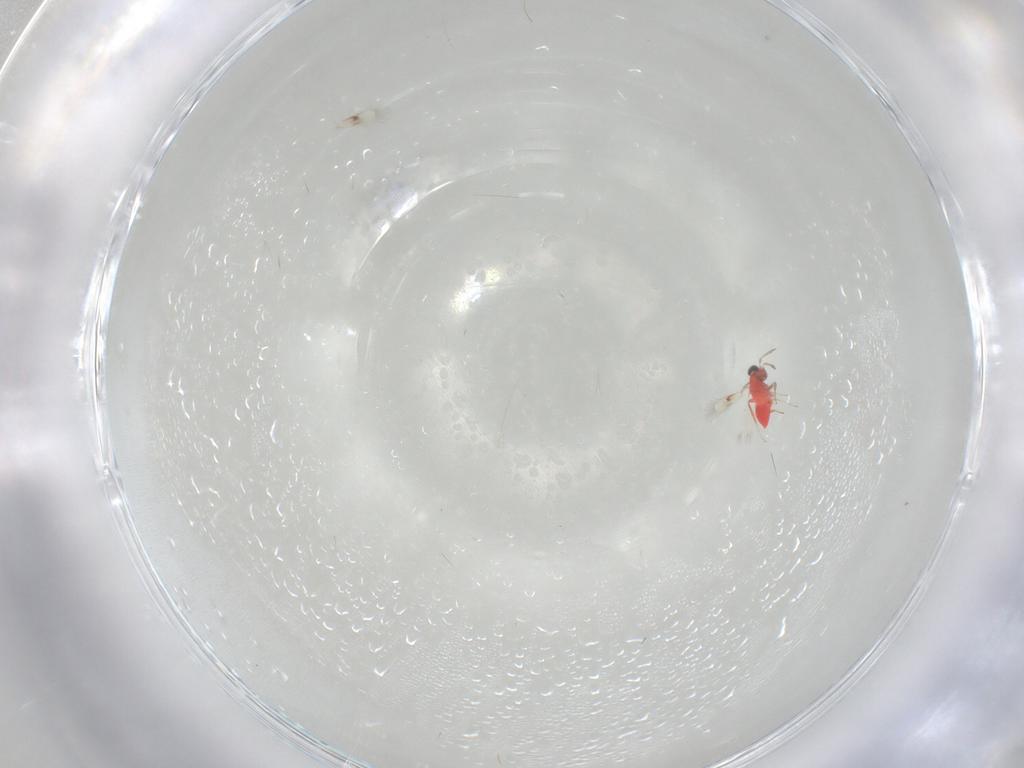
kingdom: Animalia
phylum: Arthropoda
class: Insecta
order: Hymenoptera
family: Trichogrammatidae
